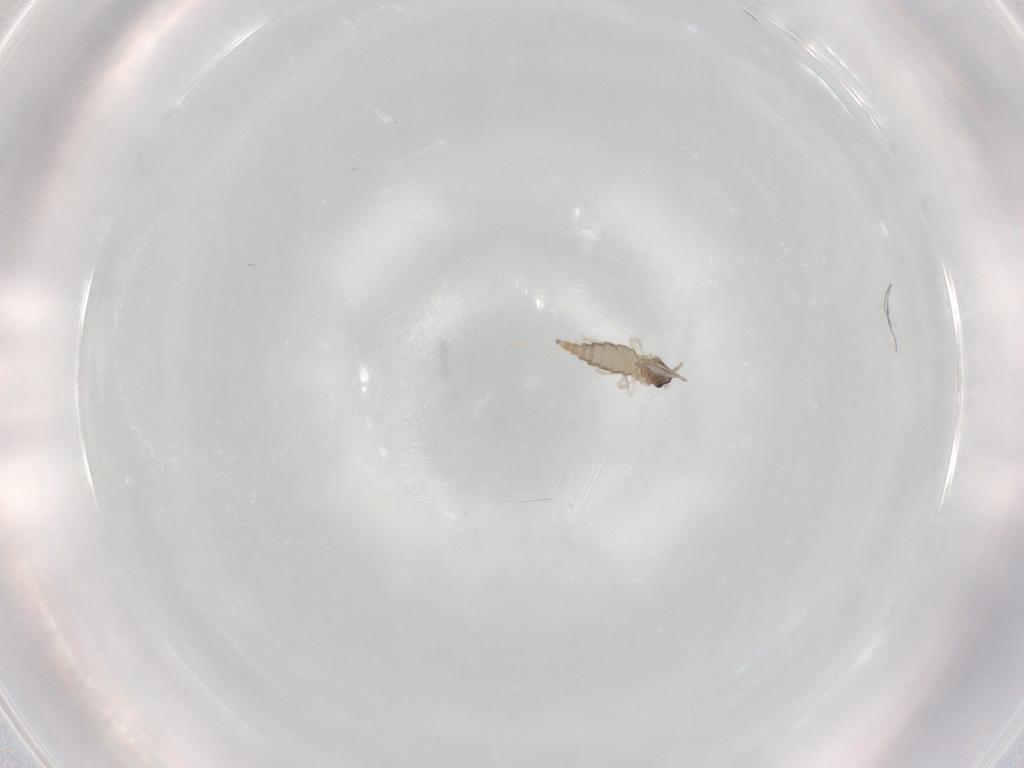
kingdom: Animalia
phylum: Arthropoda
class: Insecta
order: Diptera
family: Cecidomyiidae
